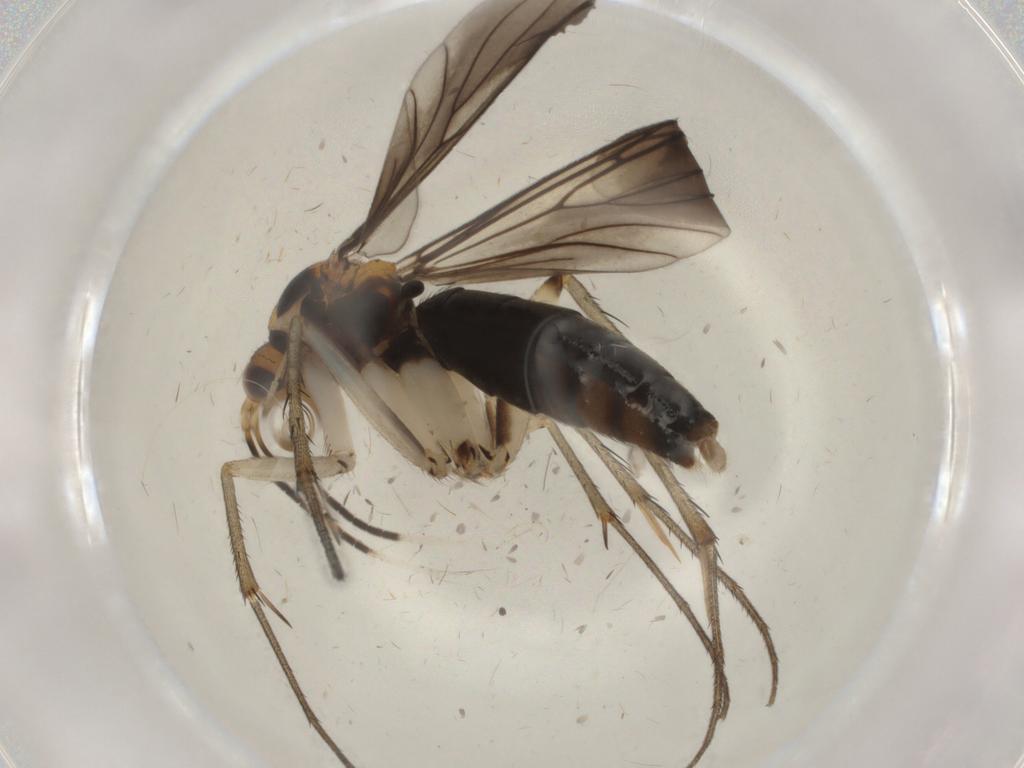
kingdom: Animalia
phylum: Arthropoda
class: Insecta
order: Diptera
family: Mycetophilidae
